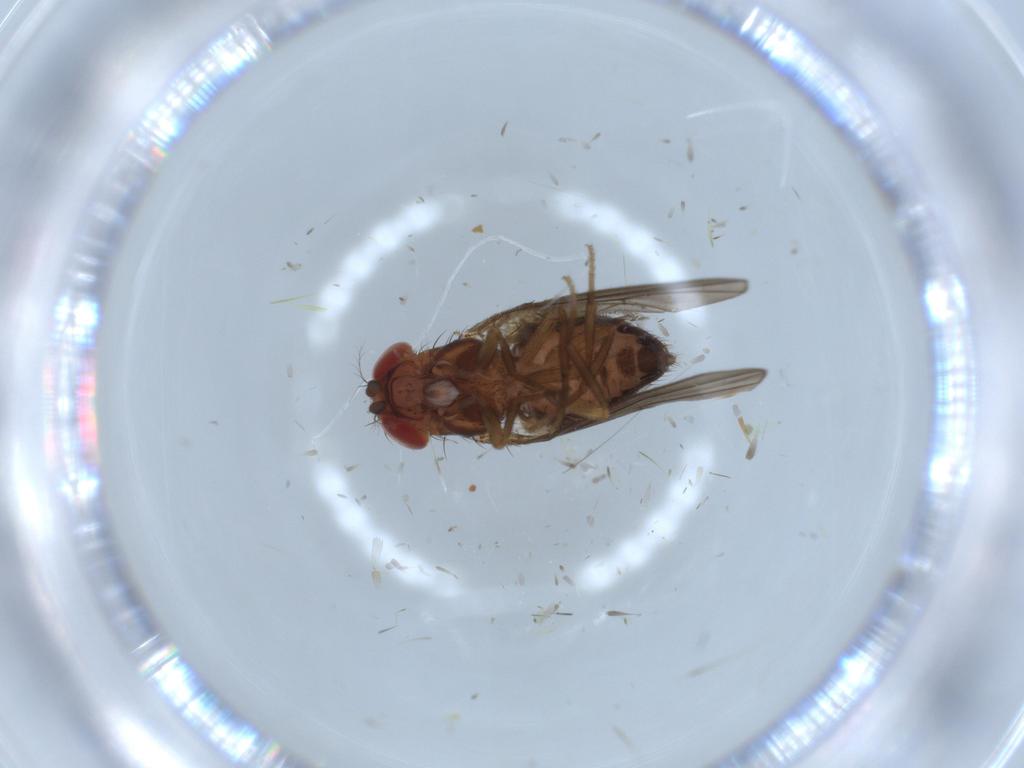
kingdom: Animalia
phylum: Arthropoda
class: Insecta
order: Diptera
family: Drosophilidae
